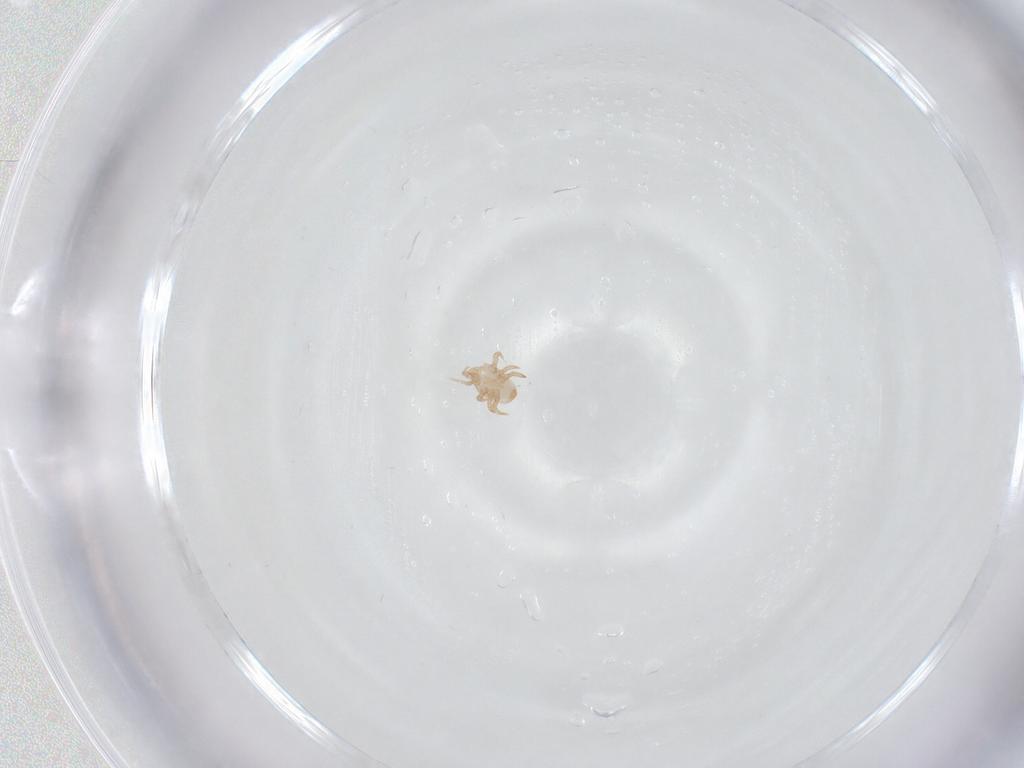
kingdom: Animalia
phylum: Arthropoda
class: Arachnida
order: Mesostigmata
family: Halolaelapidae
